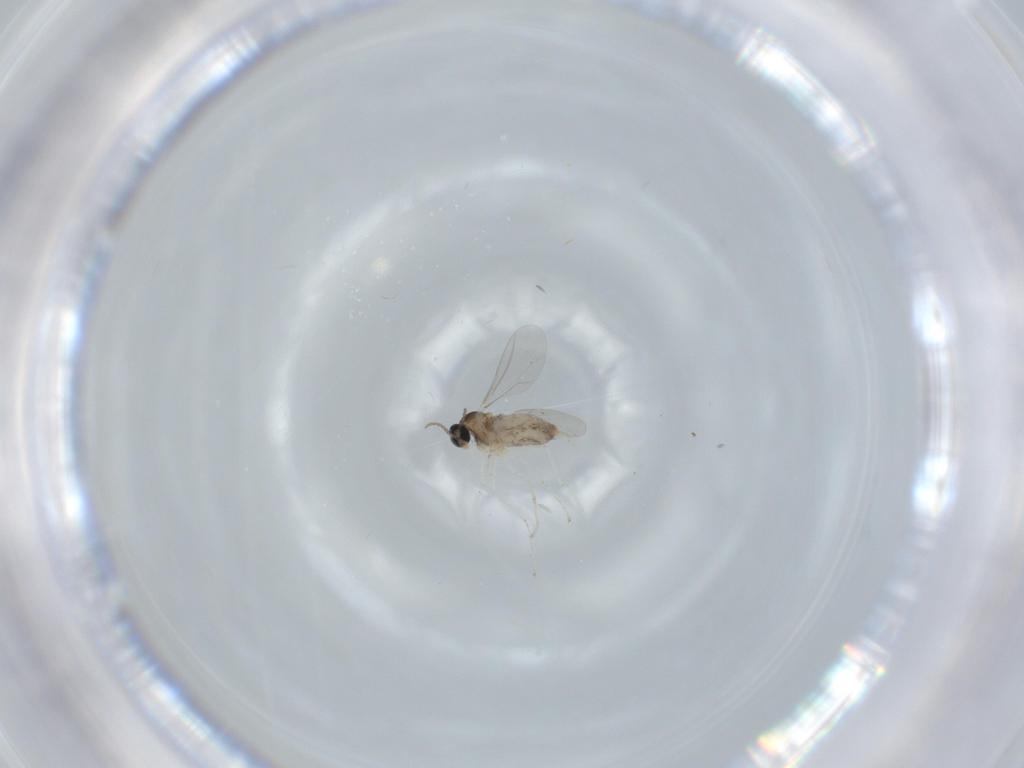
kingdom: Animalia
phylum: Arthropoda
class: Insecta
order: Diptera
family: Cecidomyiidae
